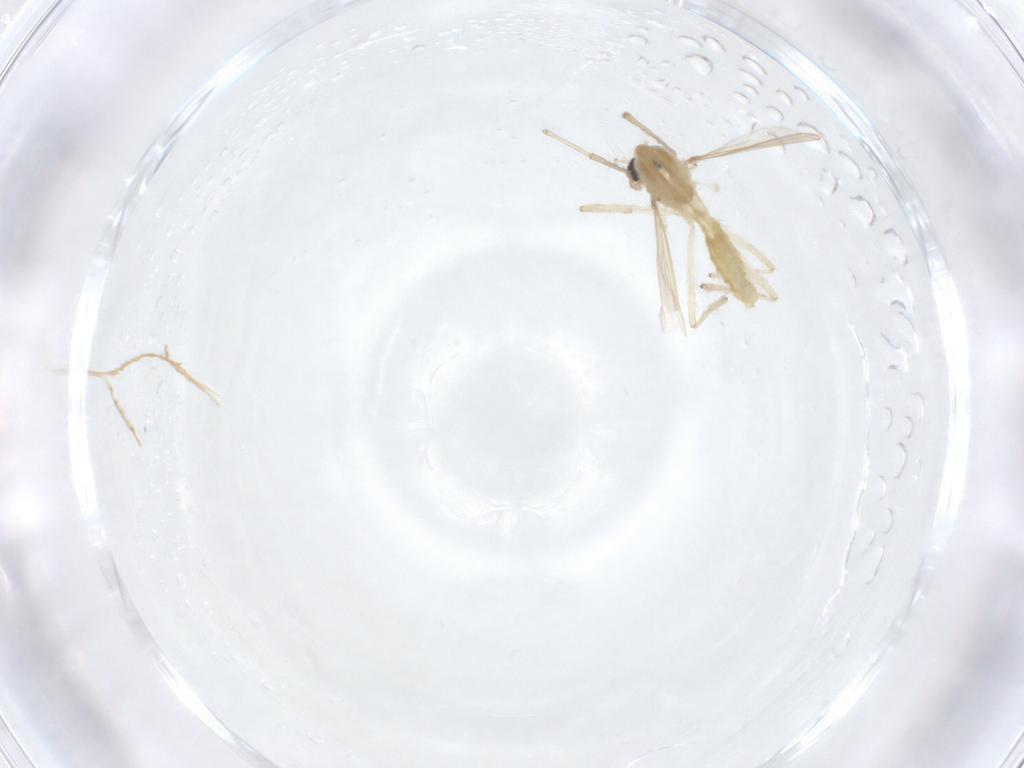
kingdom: Animalia
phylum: Arthropoda
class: Insecta
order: Diptera
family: Chironomidae
